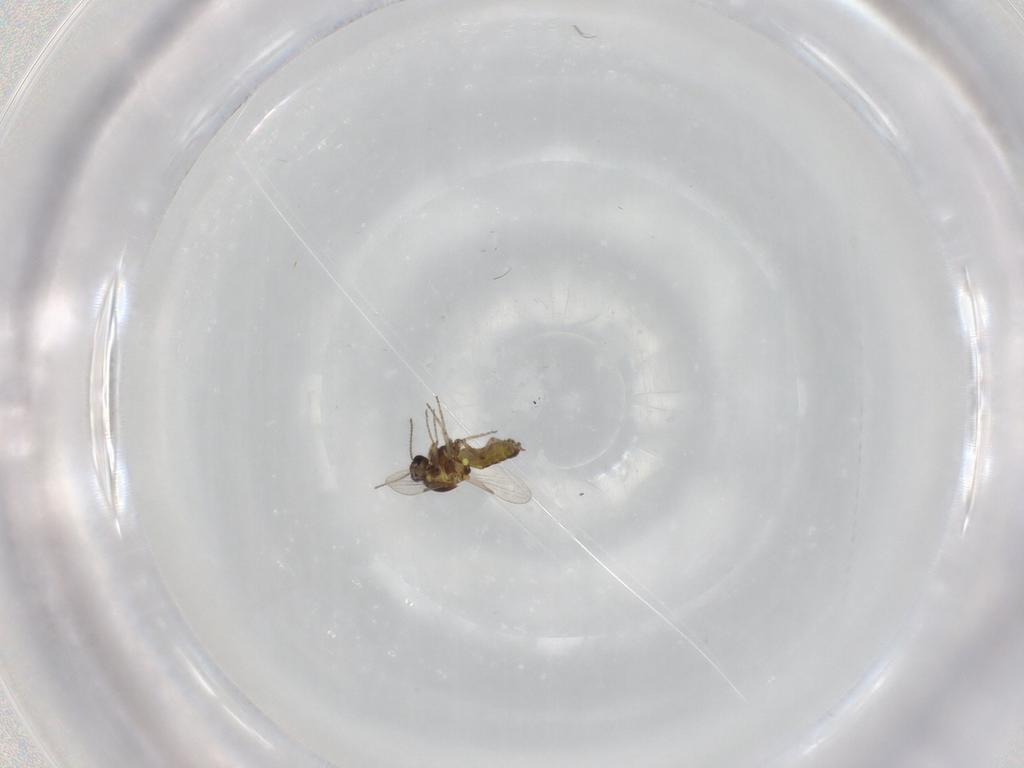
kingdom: Animalia
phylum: Arthropoda
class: Insecta
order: Diptera
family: Ceratopogonidae
